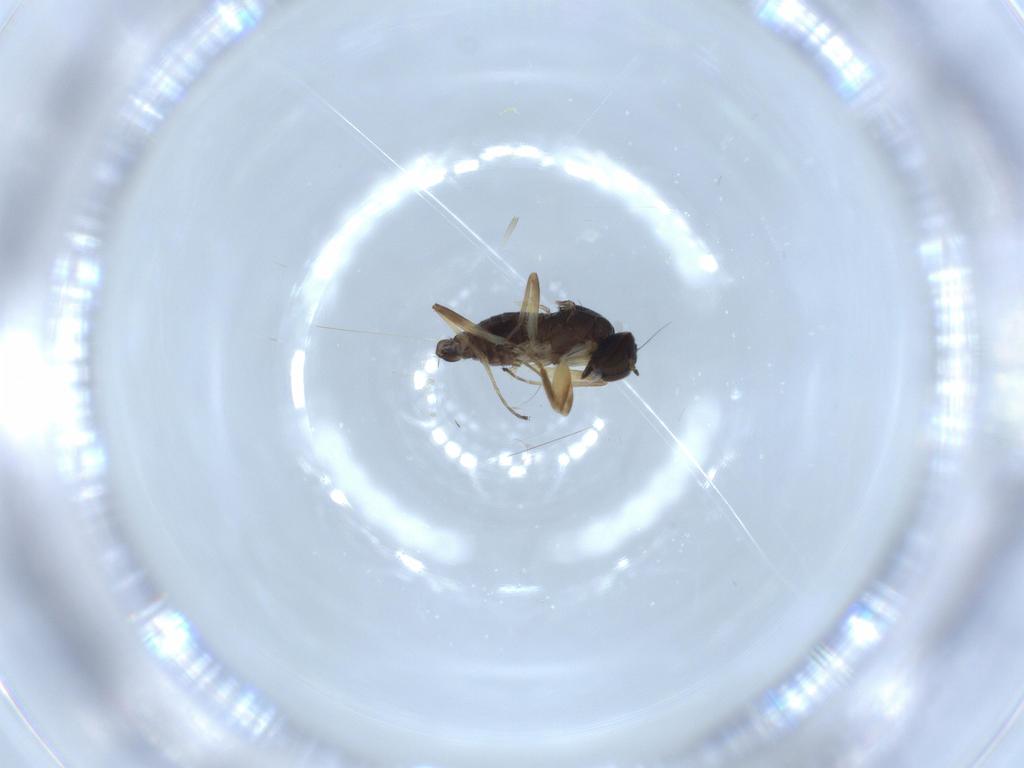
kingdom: Animalia
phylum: Arthropoda
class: Insecta
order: Diptera
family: Hybotidae
